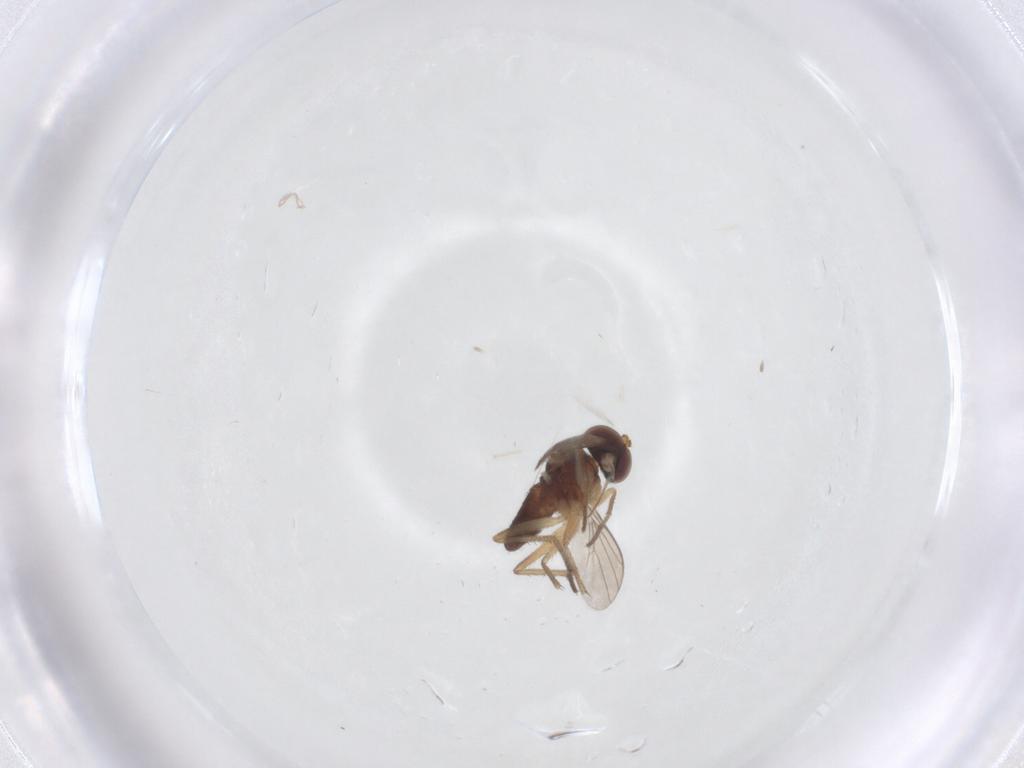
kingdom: Animalia
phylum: Arthropoda
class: Insecta
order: Diptera
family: Dolichopodidae
